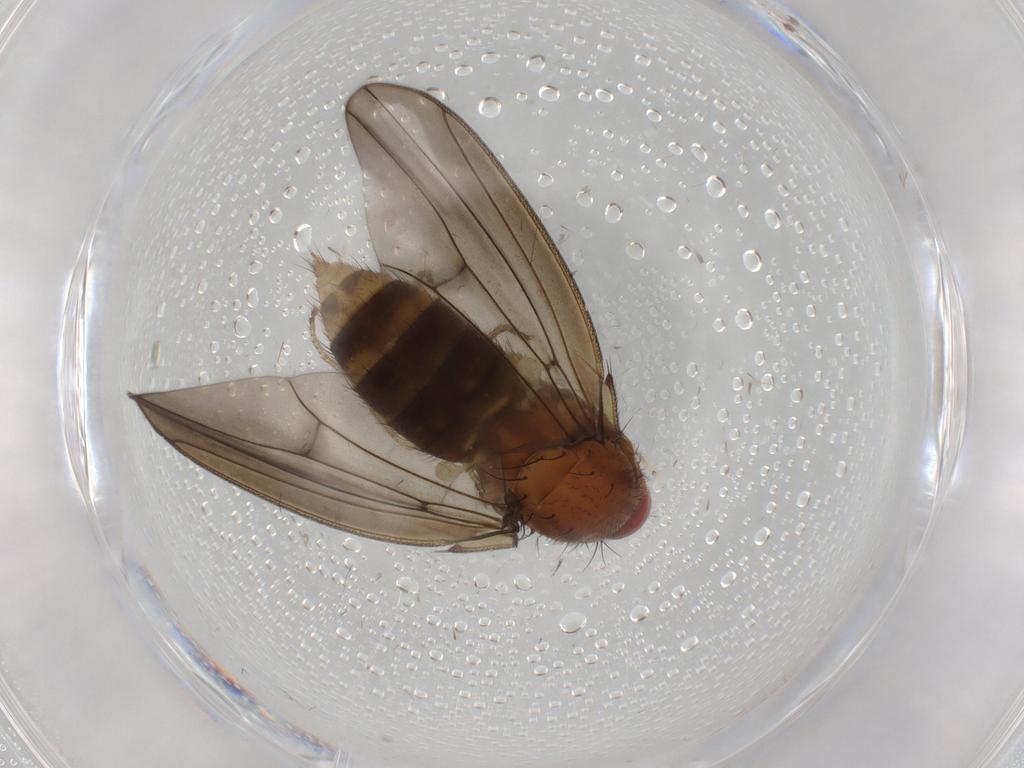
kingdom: Animalia
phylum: Arthropoda
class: Insecta
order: Diptera
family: Drosophilidae
